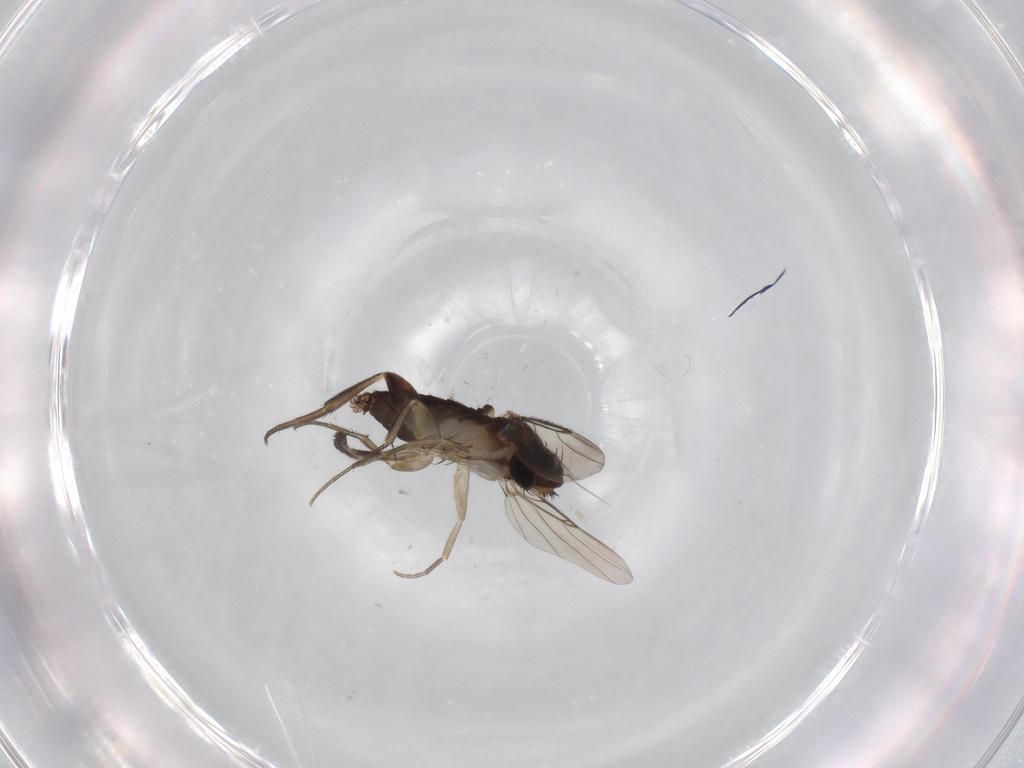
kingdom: Animalia
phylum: Arthropoda
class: Insecta
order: Diptera
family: Phoridae
